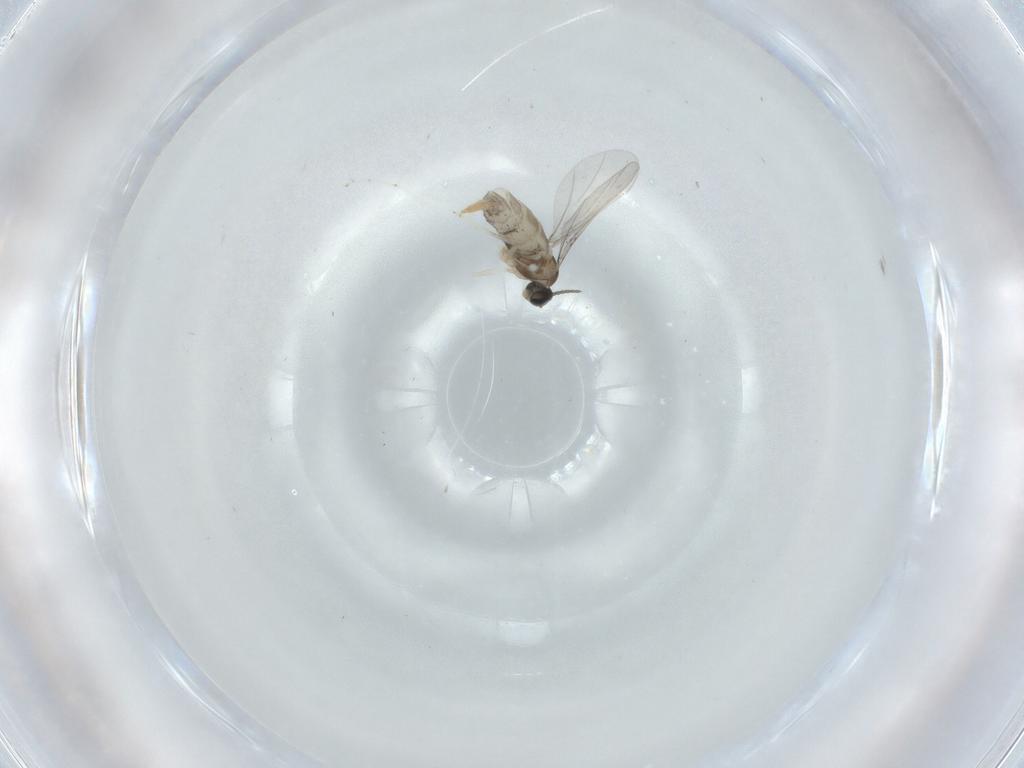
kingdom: Animalia
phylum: Arthropoda
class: Insecta
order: Diptera
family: Cecidomyiidae
